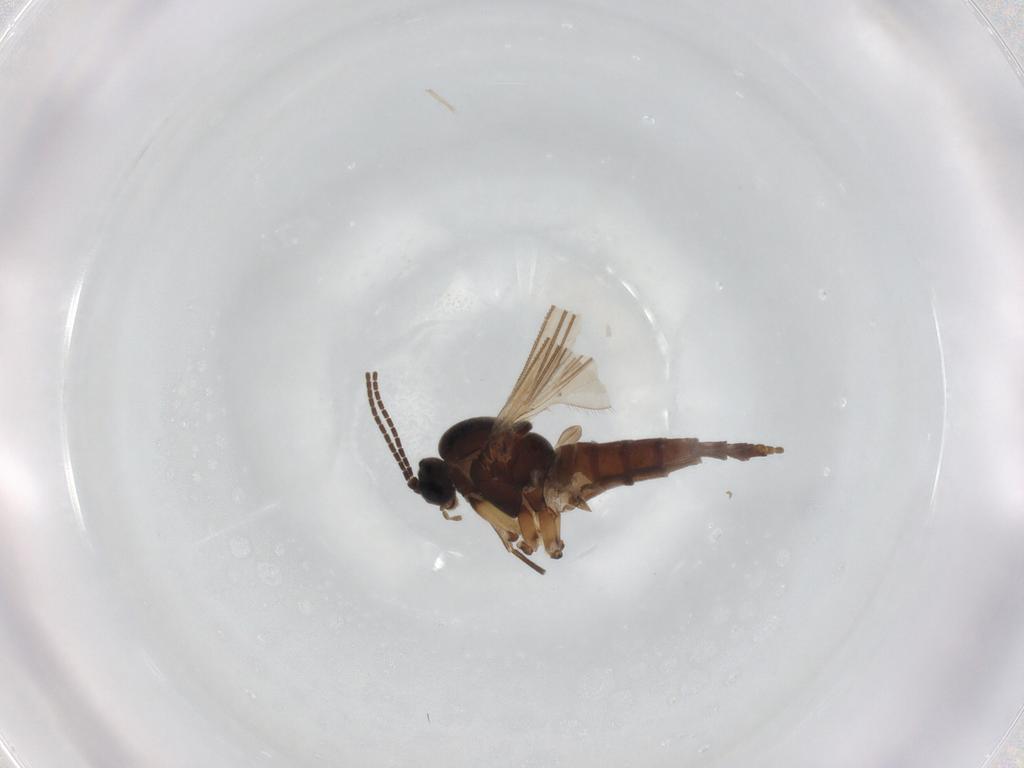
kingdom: Animalia
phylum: Arthropoda
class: Insecta
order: Diptera
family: Sciaridae
